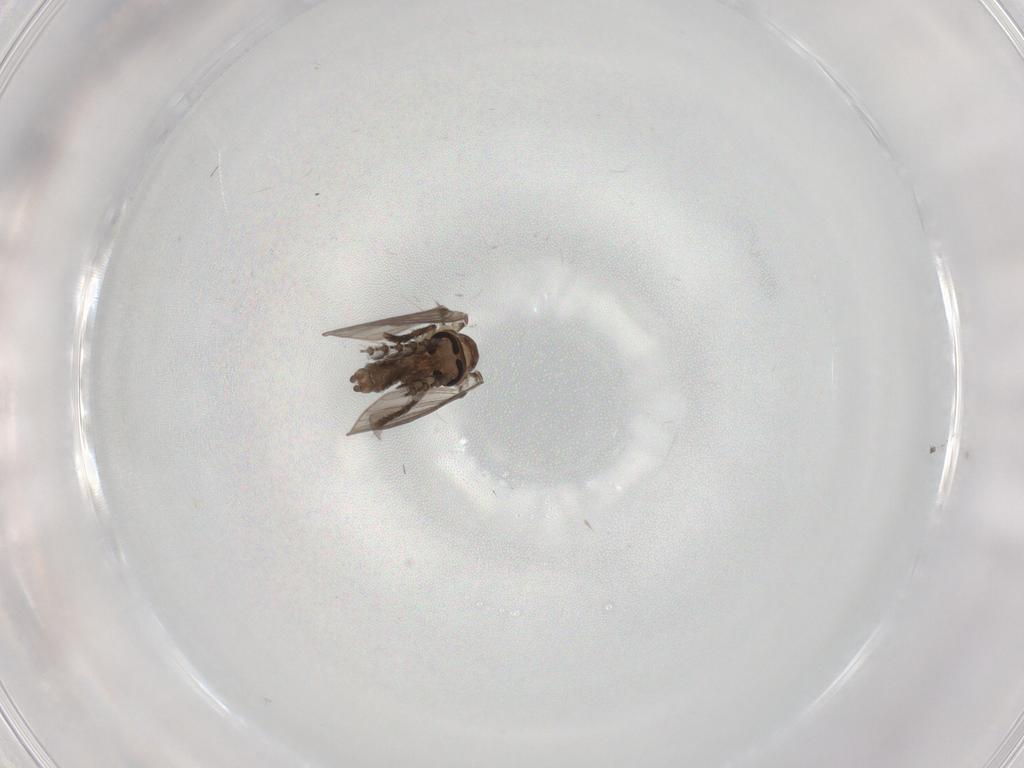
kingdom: Animalia
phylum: Arthropoda
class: Insecta
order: Diptera
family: Psychodidae
